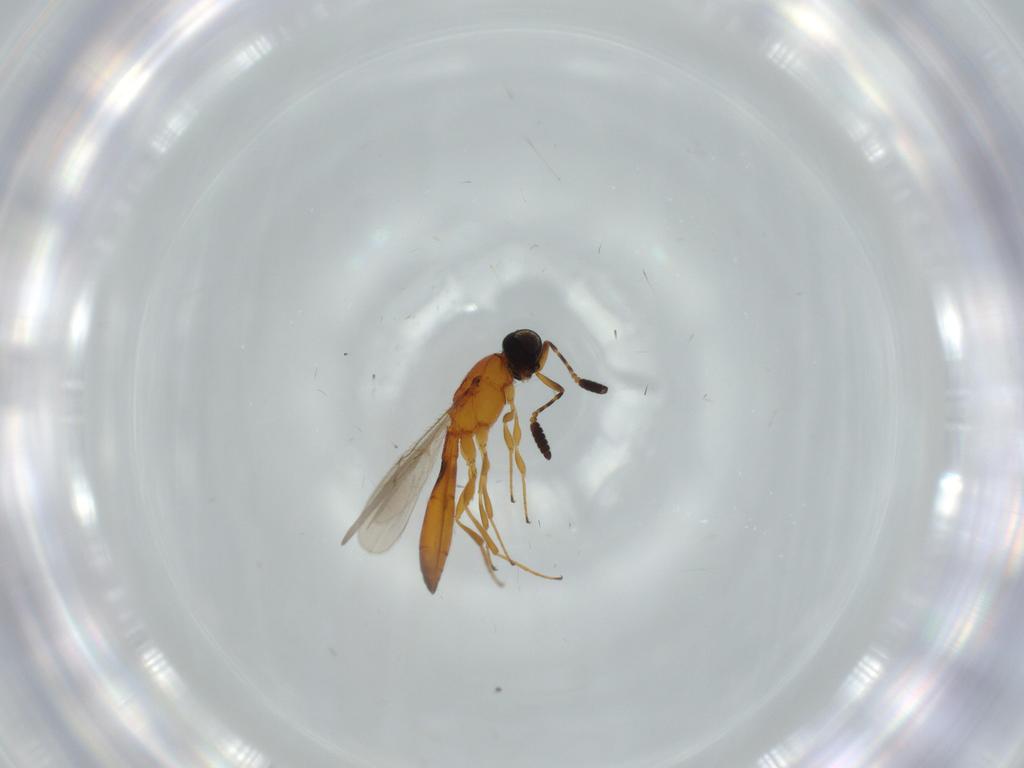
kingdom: Animalia
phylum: Arthropoda
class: Insecta
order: Hymenoptera
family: Scelionidae
